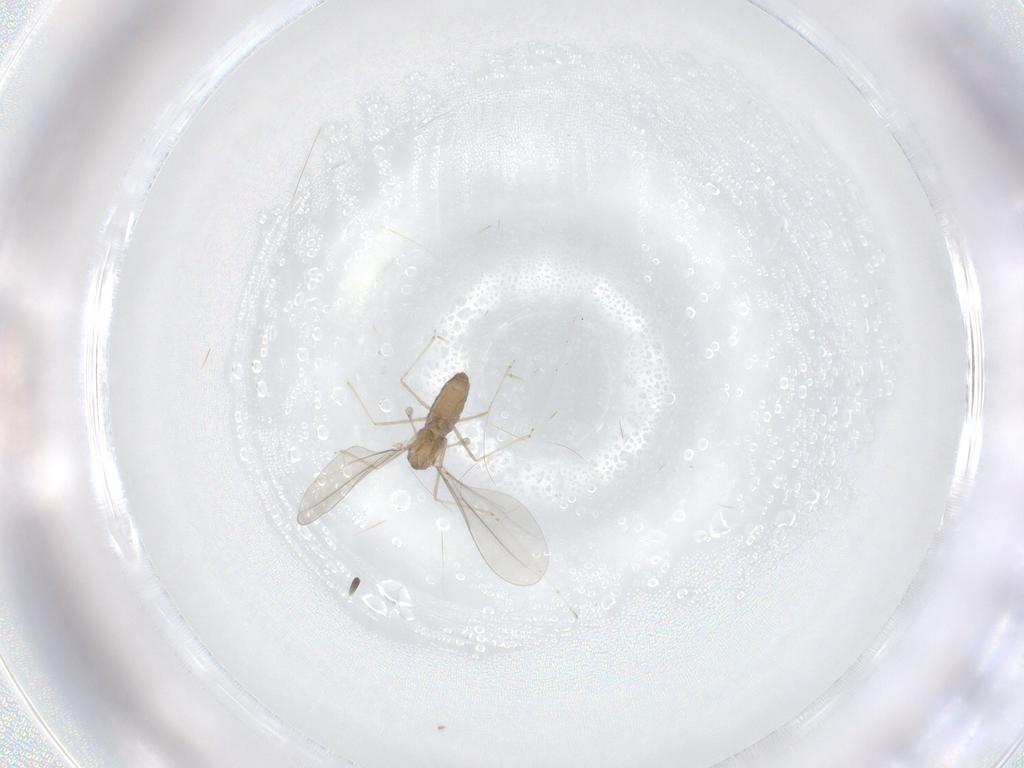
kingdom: Animalia
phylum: Arthropoda
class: Insecta
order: Diptera
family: Cecidomyiidae
